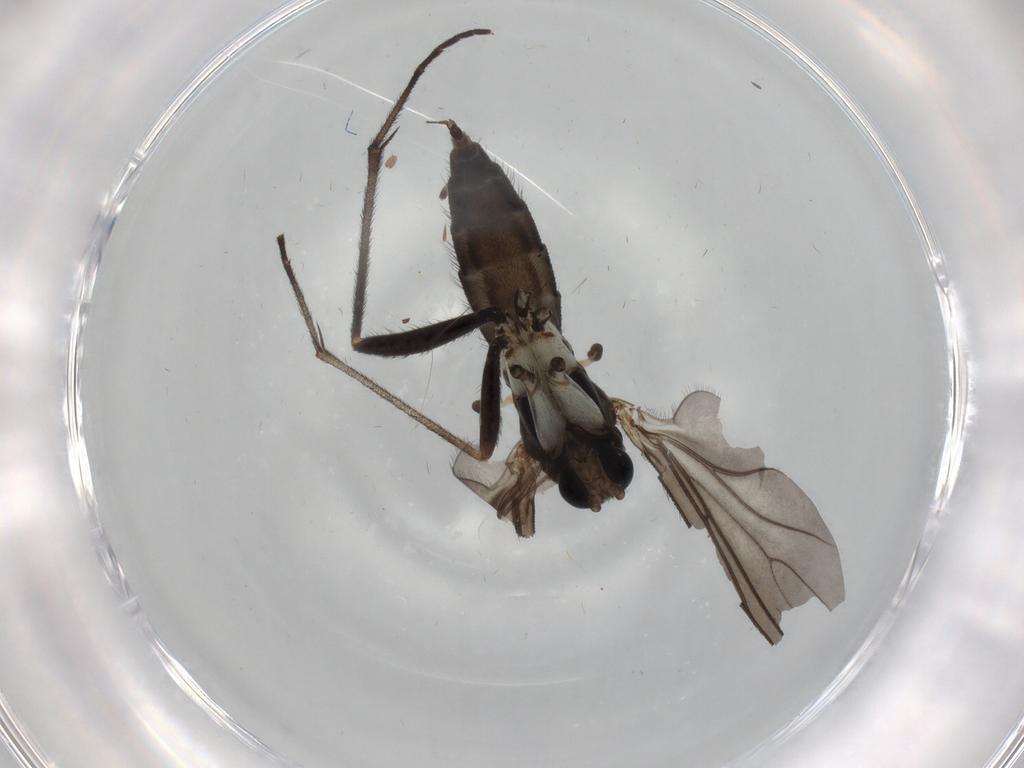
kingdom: Animalia
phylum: Arthropoda
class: Insecta
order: Diptera
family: Sciaridae
